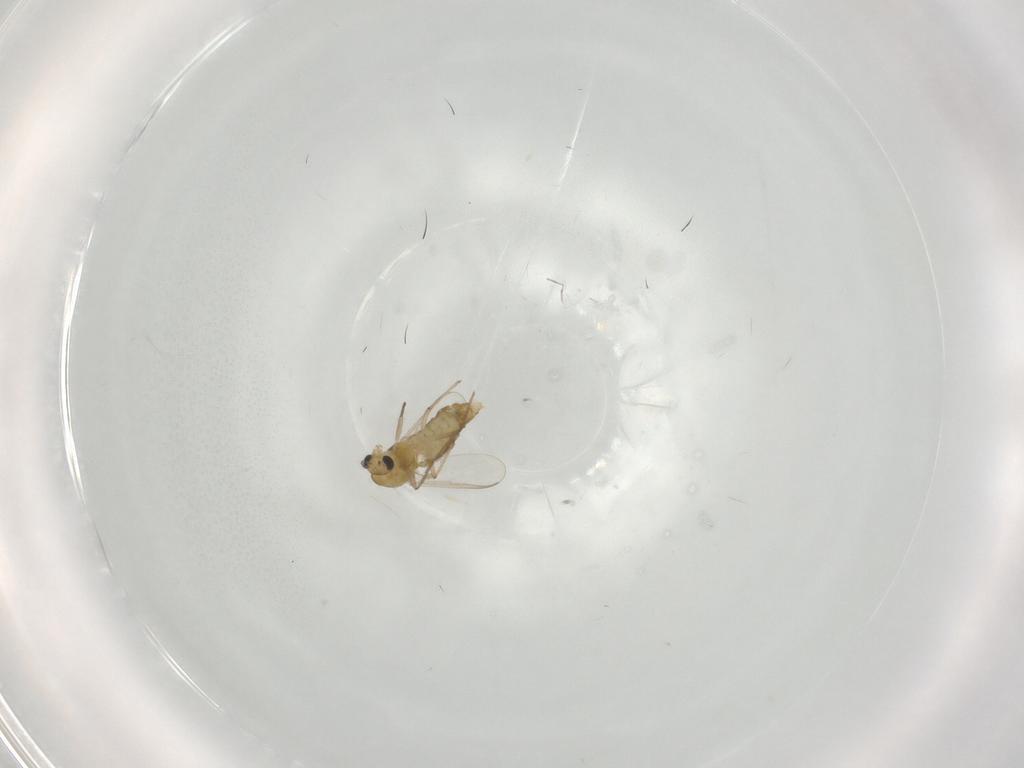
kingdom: Animalia
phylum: Arthropoda
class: Insecta
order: Diptera
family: Chironomidae
